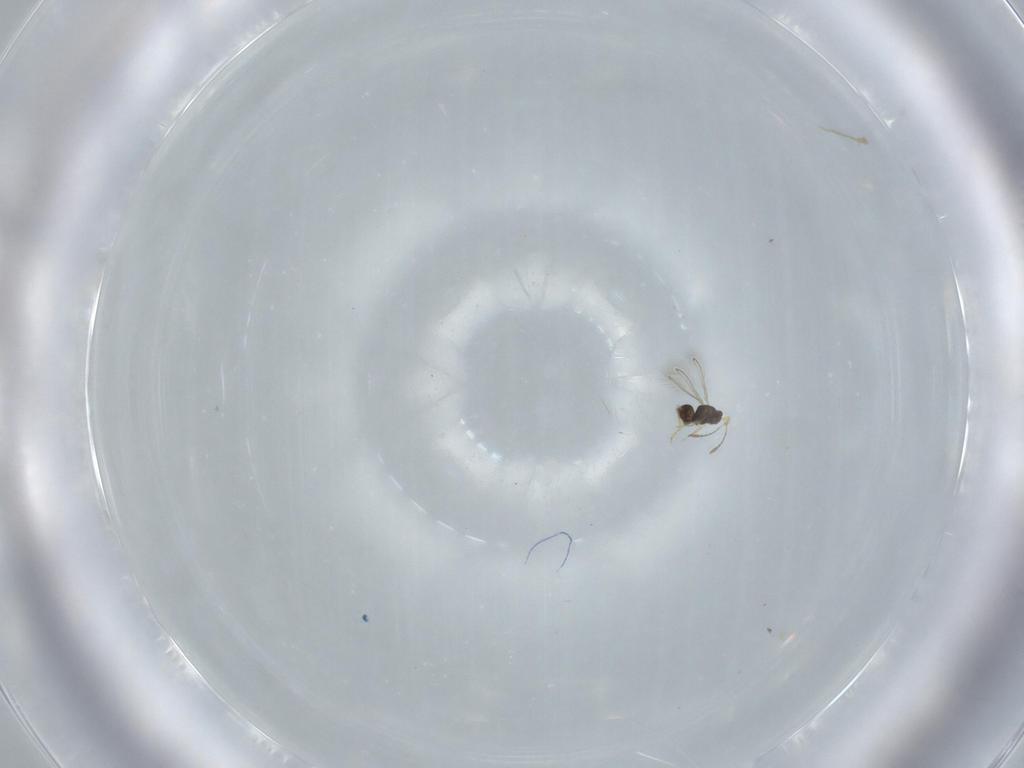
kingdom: Animalia
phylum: Arthropoda
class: Insecta
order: Hymenoptera
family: Mymaridae
